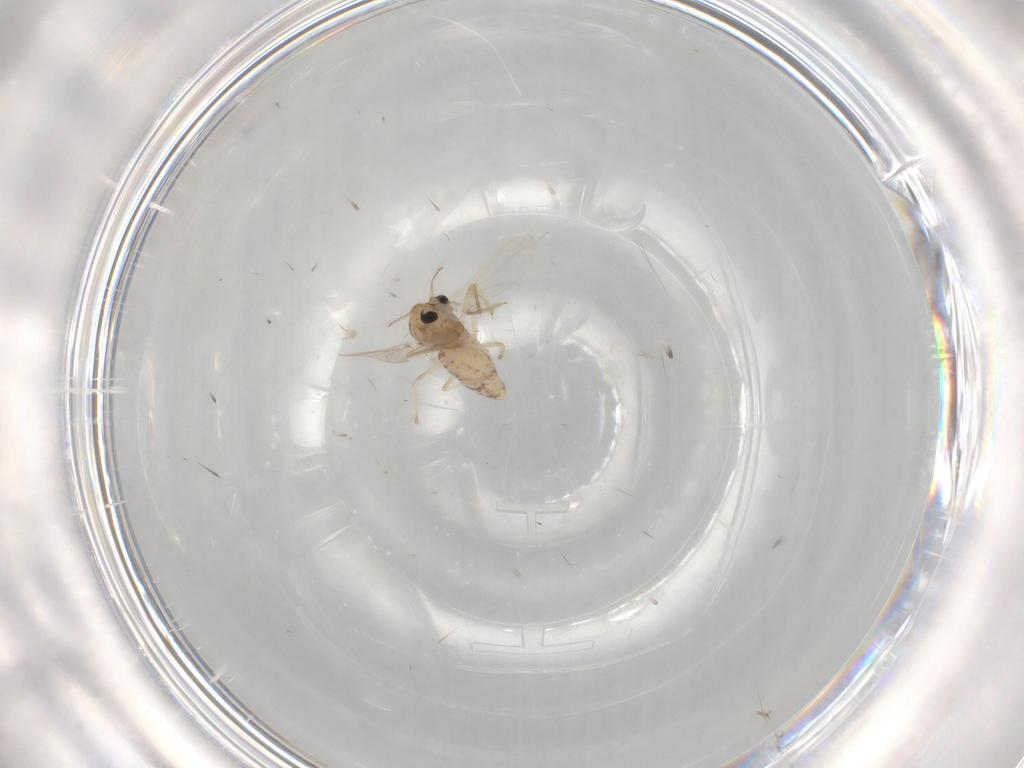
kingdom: Animalia
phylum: Arthropoda
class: Insecta
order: Diptera
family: Chironomidae
